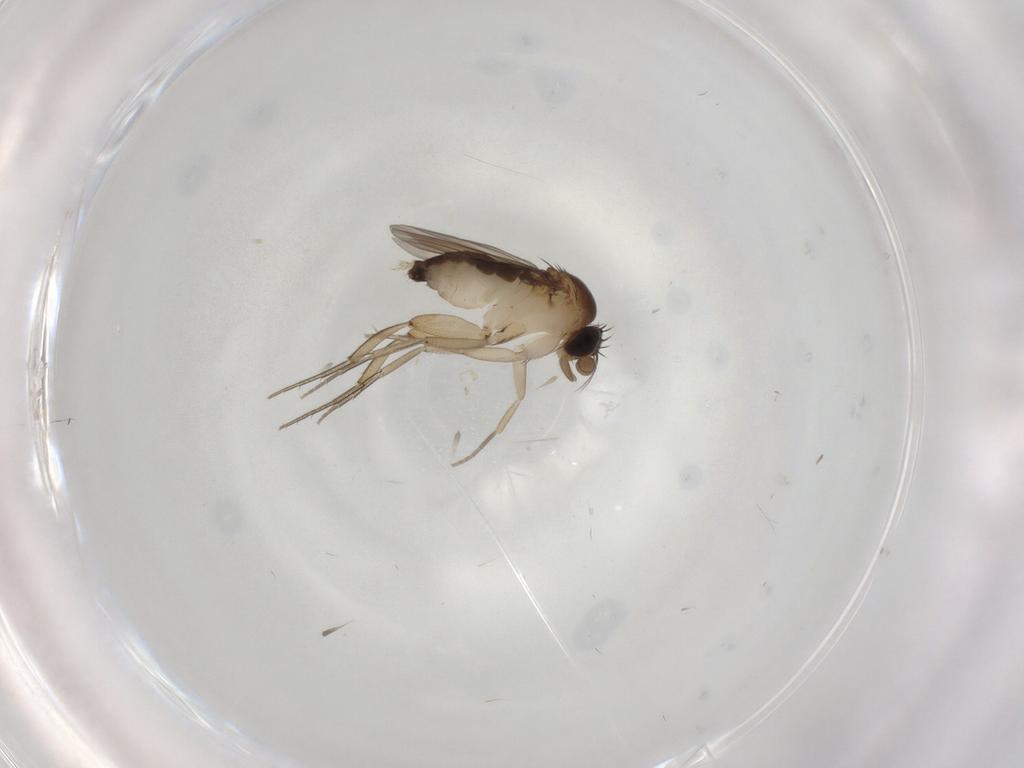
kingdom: Animalia
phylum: Arthropoda
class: Insecta
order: Diptera
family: Phoridae
